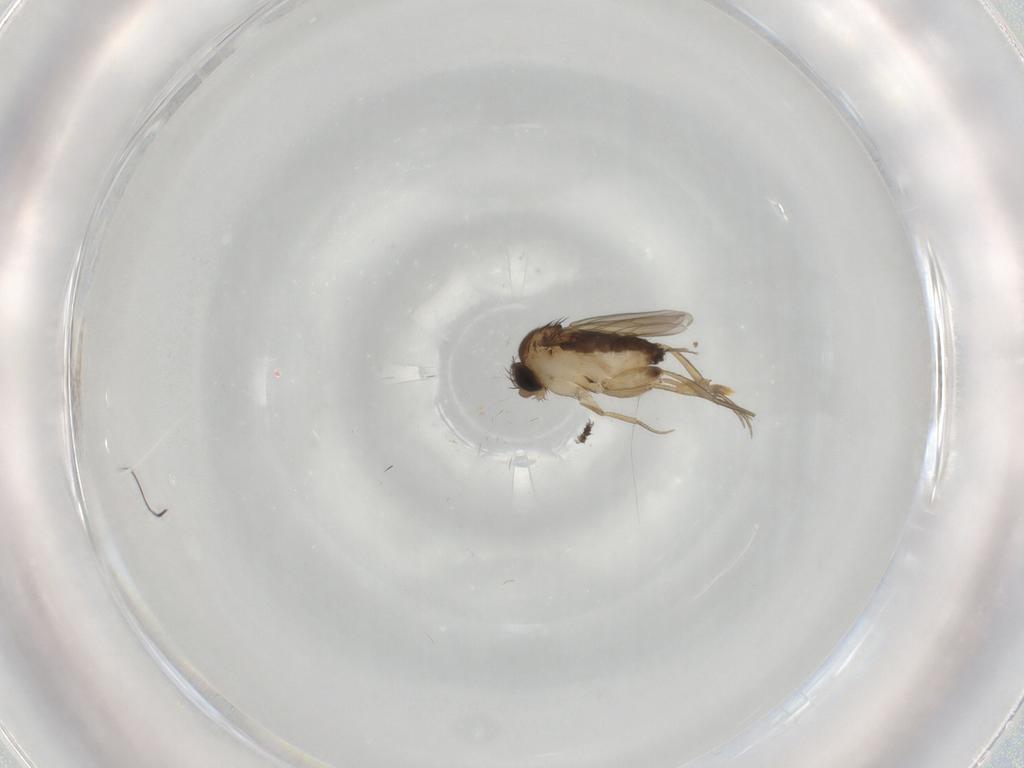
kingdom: Animalia
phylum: Arthropoda
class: Insecta
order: Diptera
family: Phoridae
